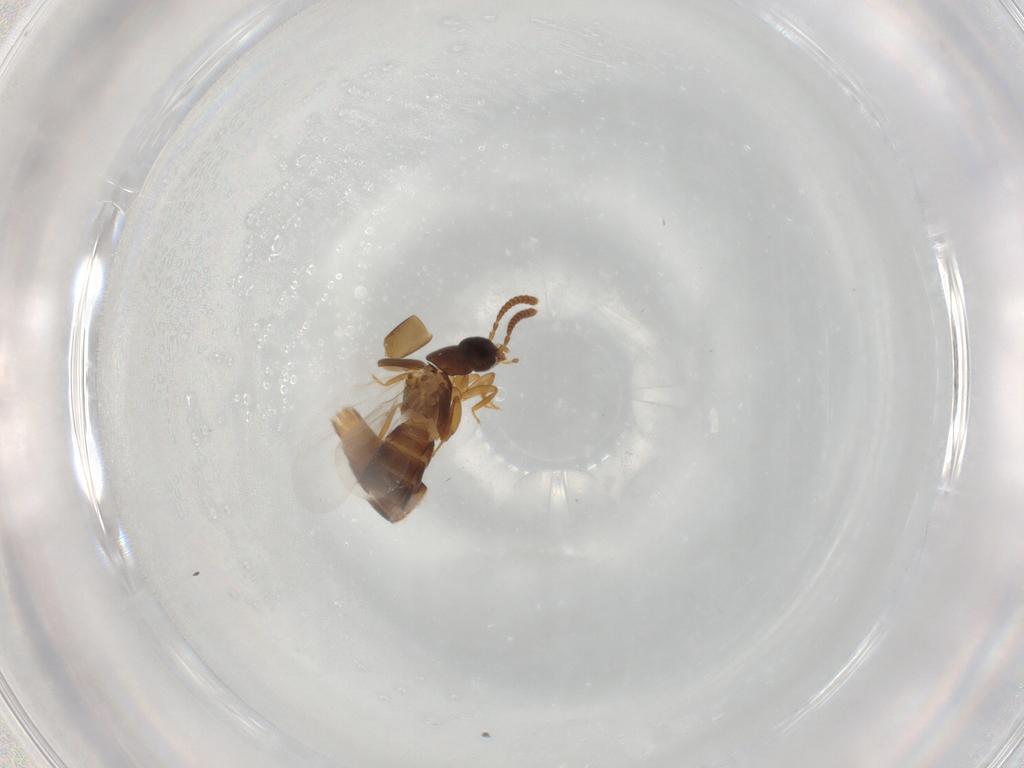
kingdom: Animalia
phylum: Arthropoda
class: Insecta
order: Coleoptera
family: Staphylinidae
